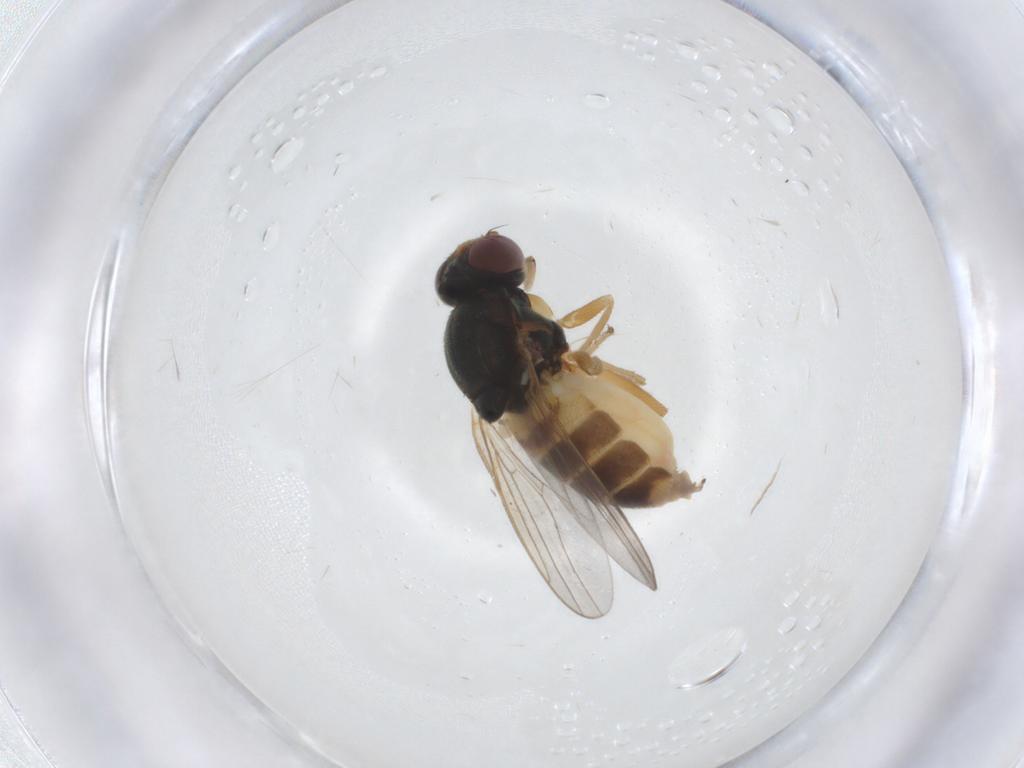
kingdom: Animalia
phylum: Arthropoda
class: Insecta
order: Diptera
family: Chloropidae
